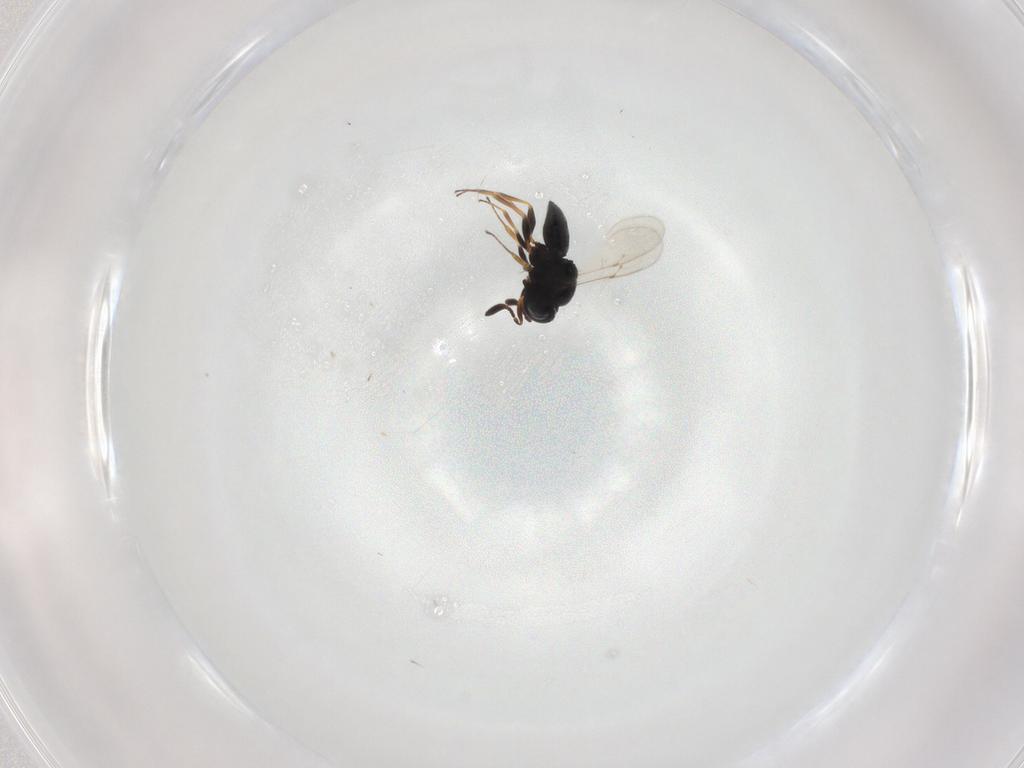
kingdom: Animalia
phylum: Arthropoda
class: Insecta
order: Coleoptera
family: Curculionidae
